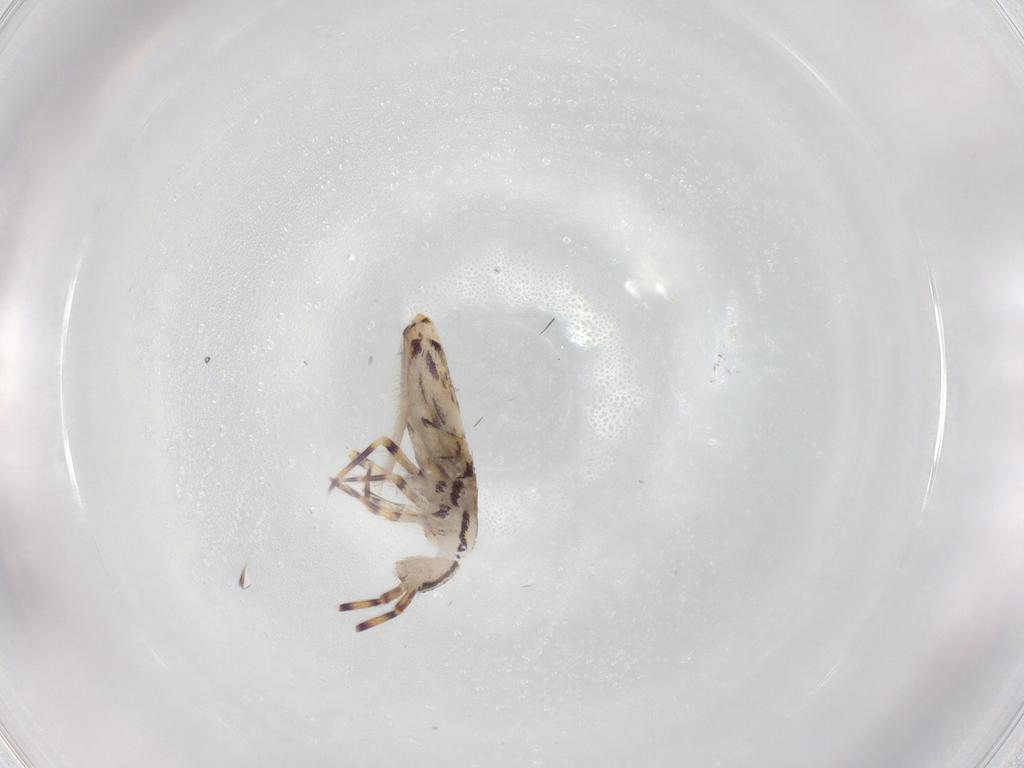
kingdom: Animalia
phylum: Arthropoda
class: Collembola
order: Entomobryomorpha
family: Entomobryidae
